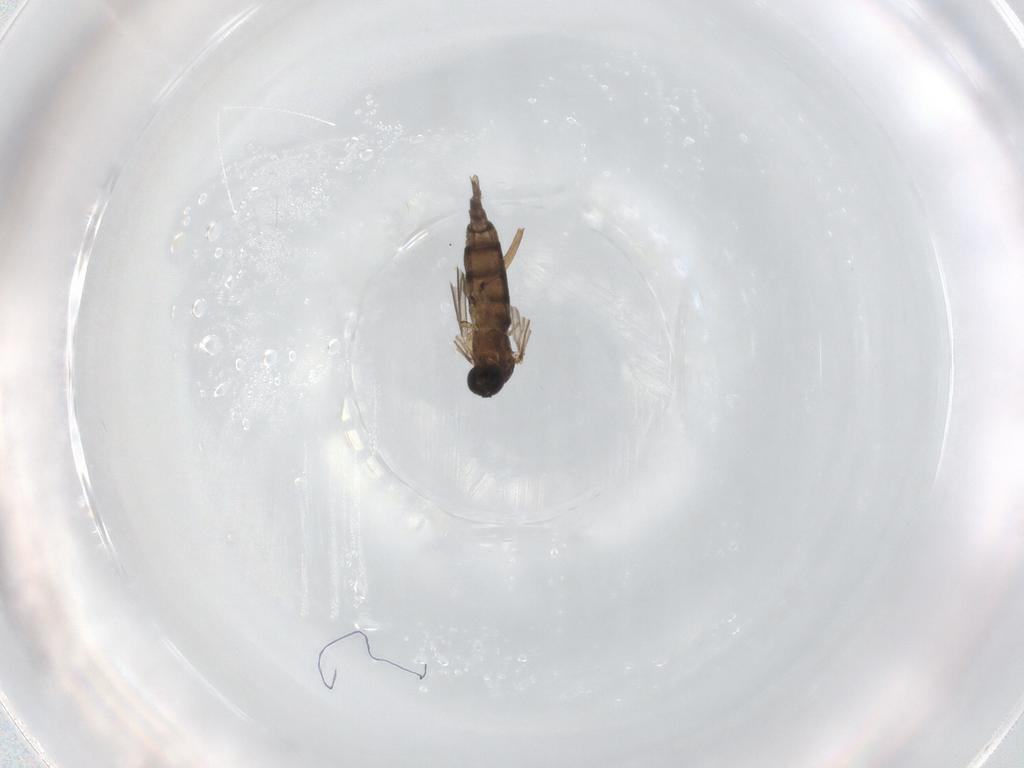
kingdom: Animalia
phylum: Arthropoda
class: Insecta
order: Diptera
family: Sciaridae
